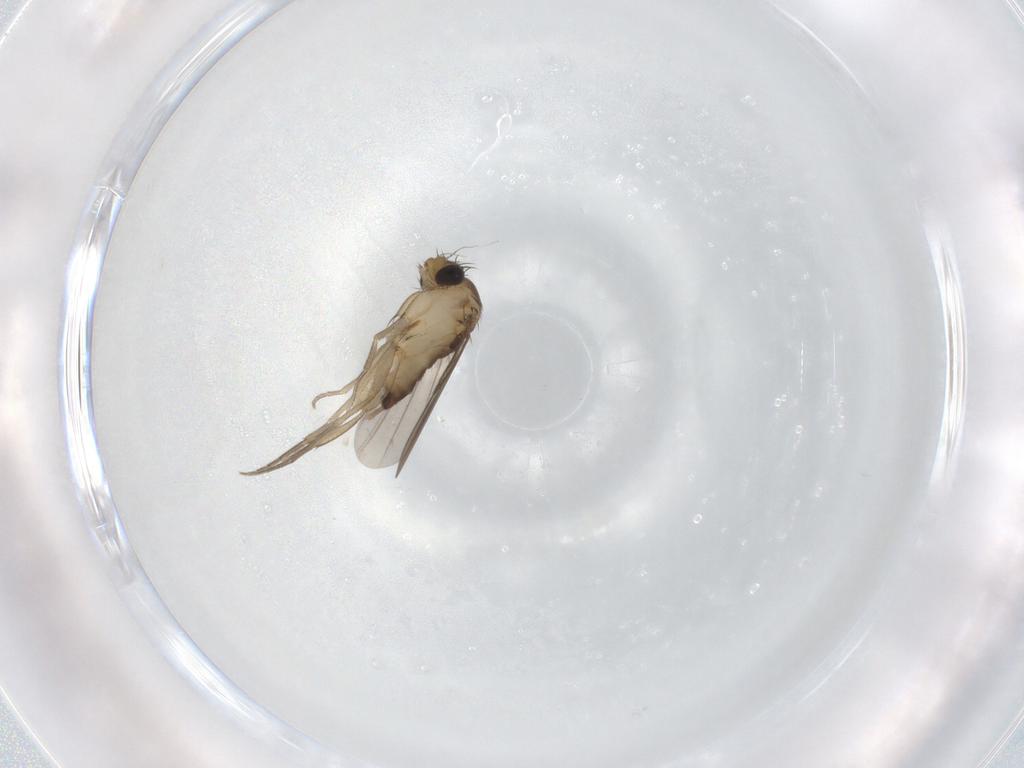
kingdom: Animalia
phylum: Arthropoda
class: Insecta
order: Diptera
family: Phoridae
